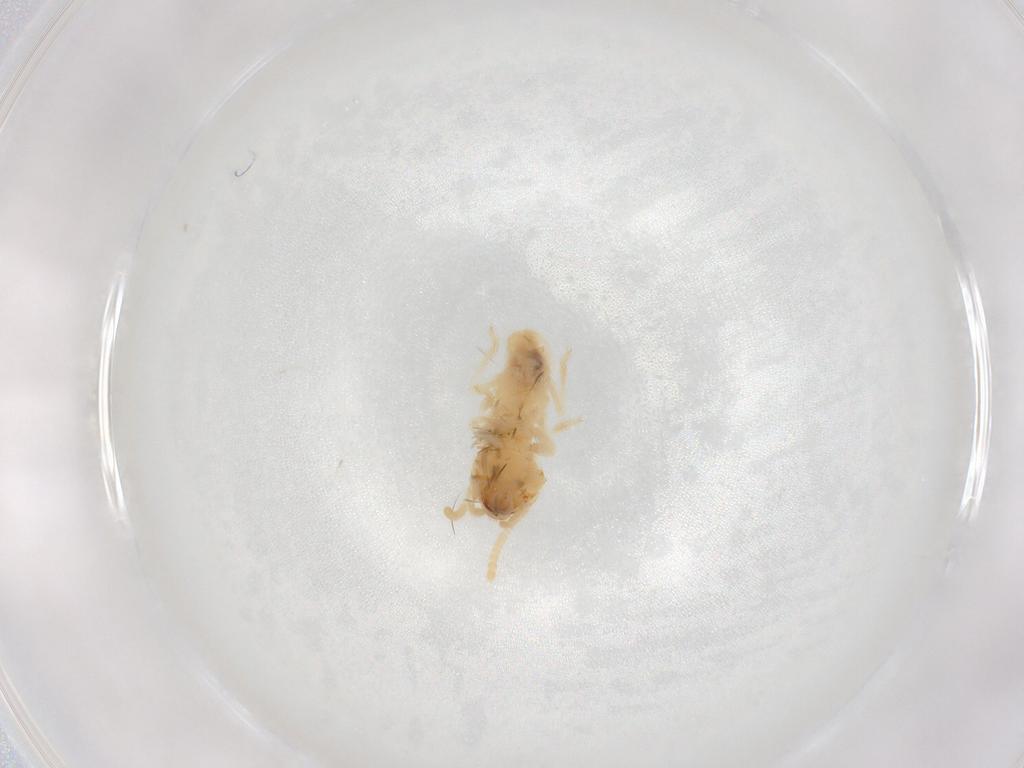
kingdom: Animalia
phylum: Arthropoda
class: Insecta
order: Blattodea
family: Termitidae
